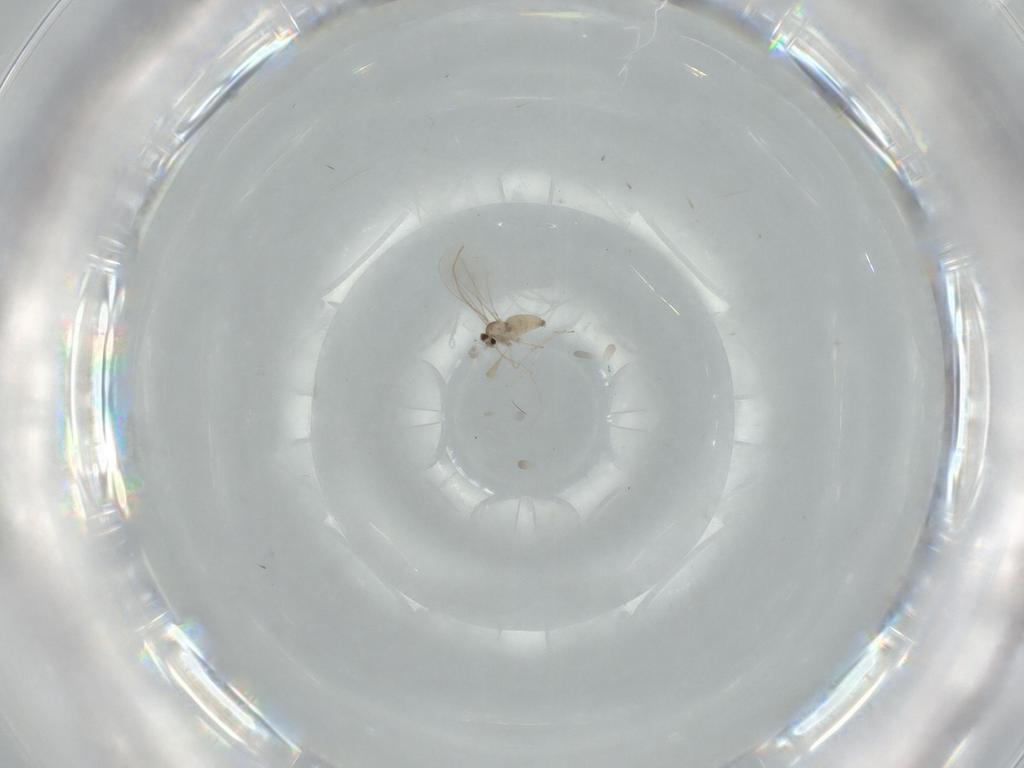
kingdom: Animalia
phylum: Arthropoda
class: Insecta
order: Diptera
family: Cecidomyiidae
